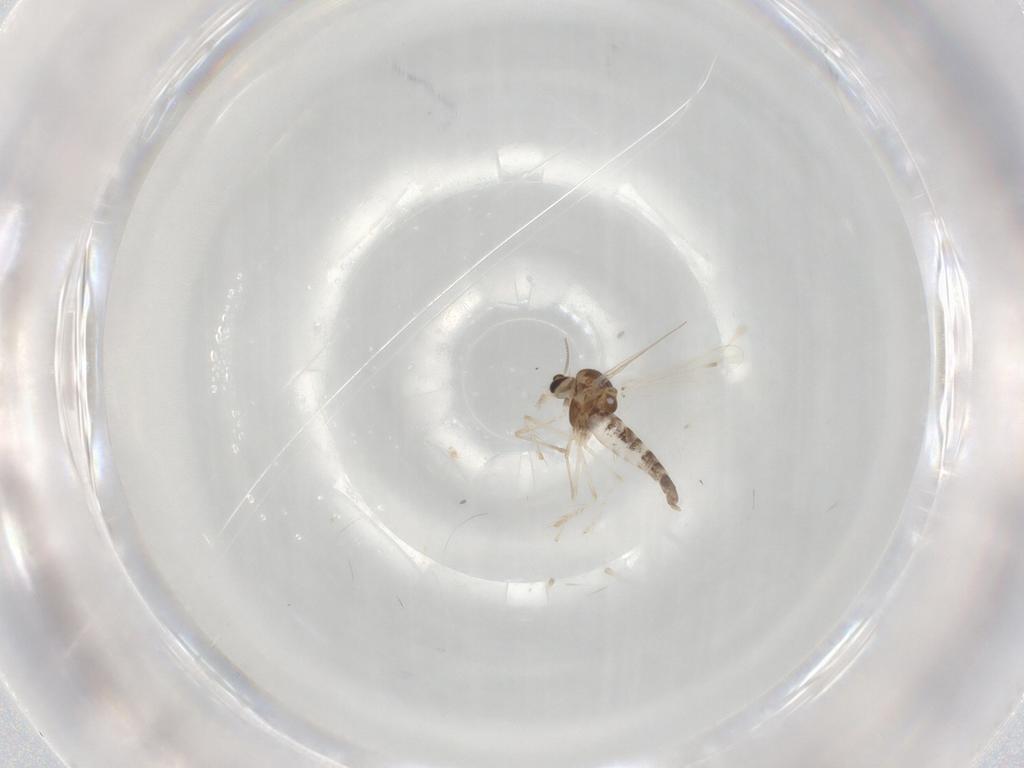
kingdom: Animalia
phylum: Arthropoda
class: Insecta
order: Diptera
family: Chironomidae
